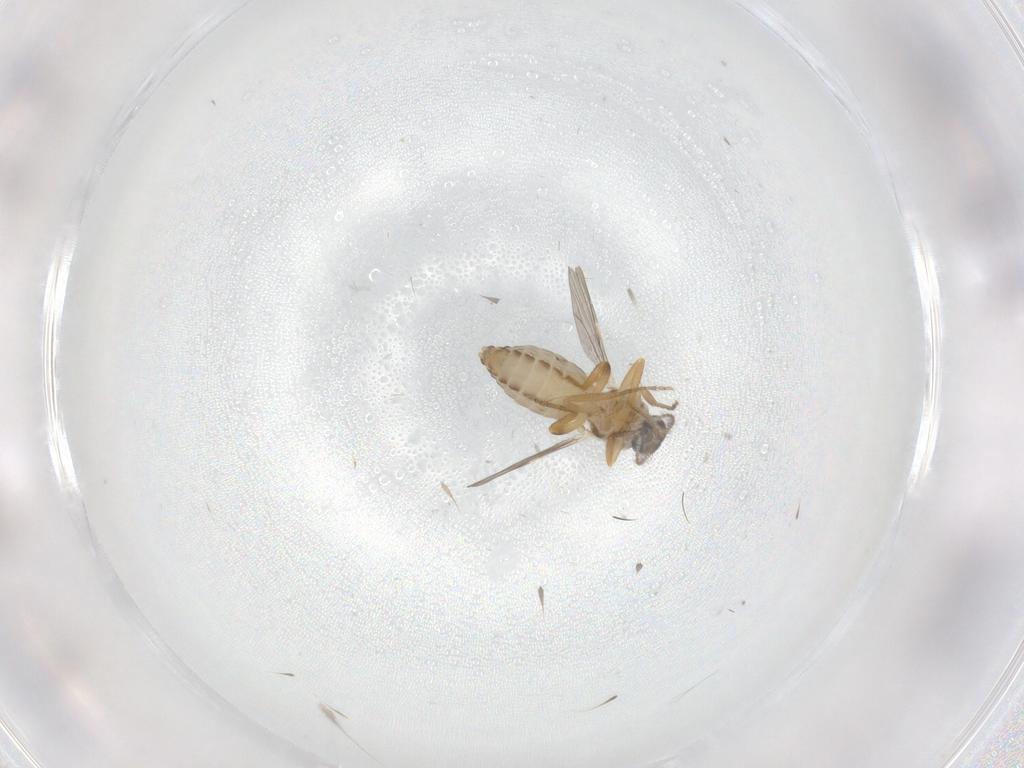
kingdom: Animalia
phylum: Arthropoda
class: Insecta
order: Diptera
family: Ceratopogonidae
